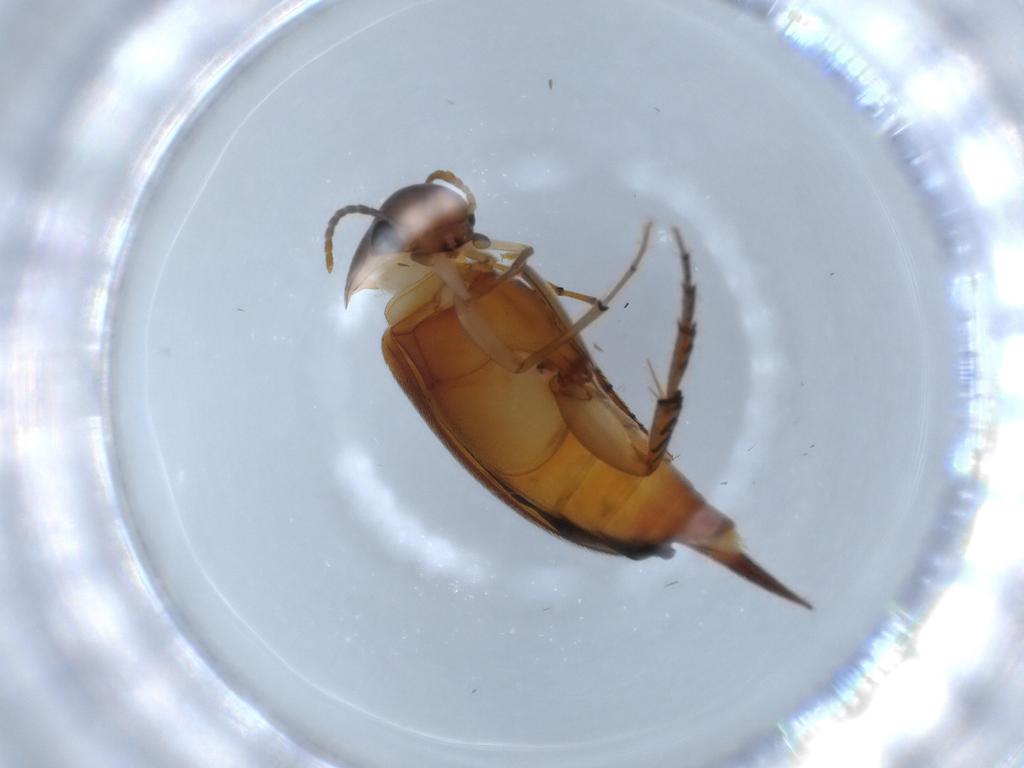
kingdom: Animalia
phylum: Arthropoda
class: Insecta
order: Coleoptera
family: Mordellidae
